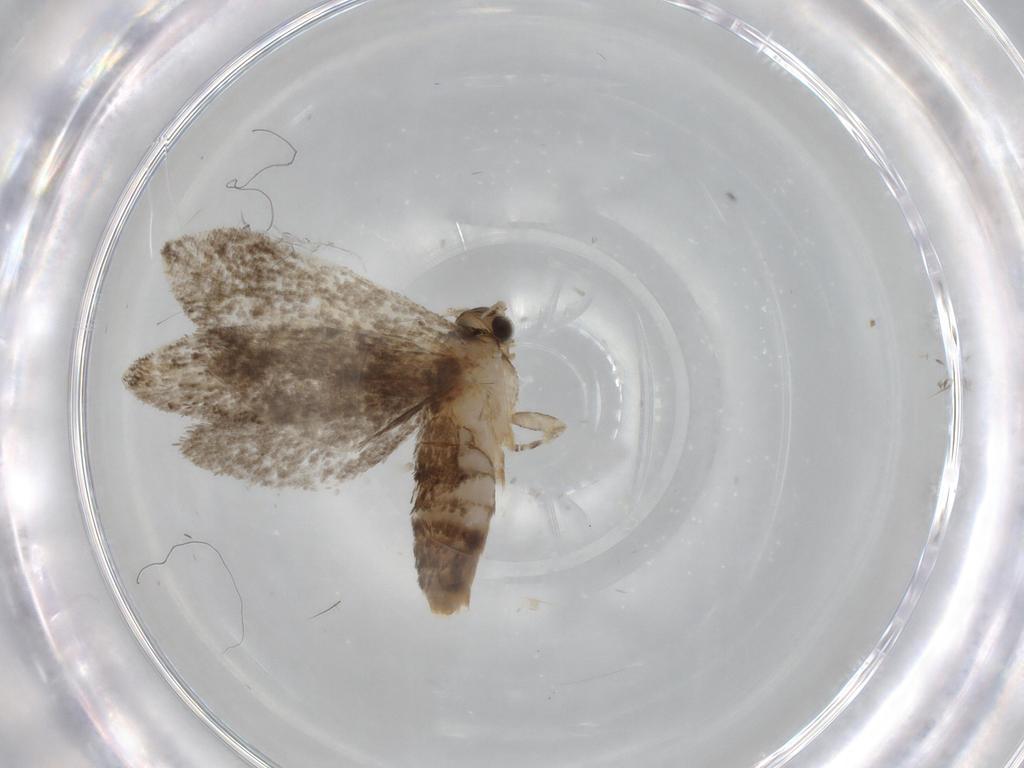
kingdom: Animalia
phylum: Arthropoda
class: Insecta
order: Lepidoptera
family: Tineidae
